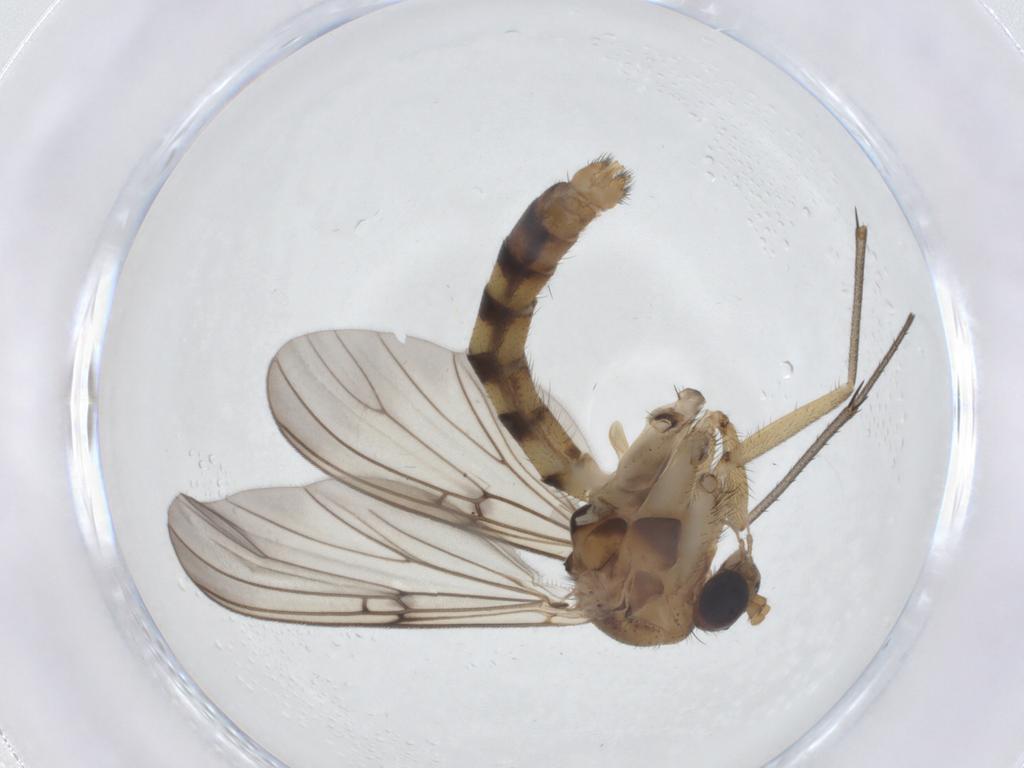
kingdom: Animalia
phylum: Arthropoda
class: Insecta
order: Diptera
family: Mycetophilidae
